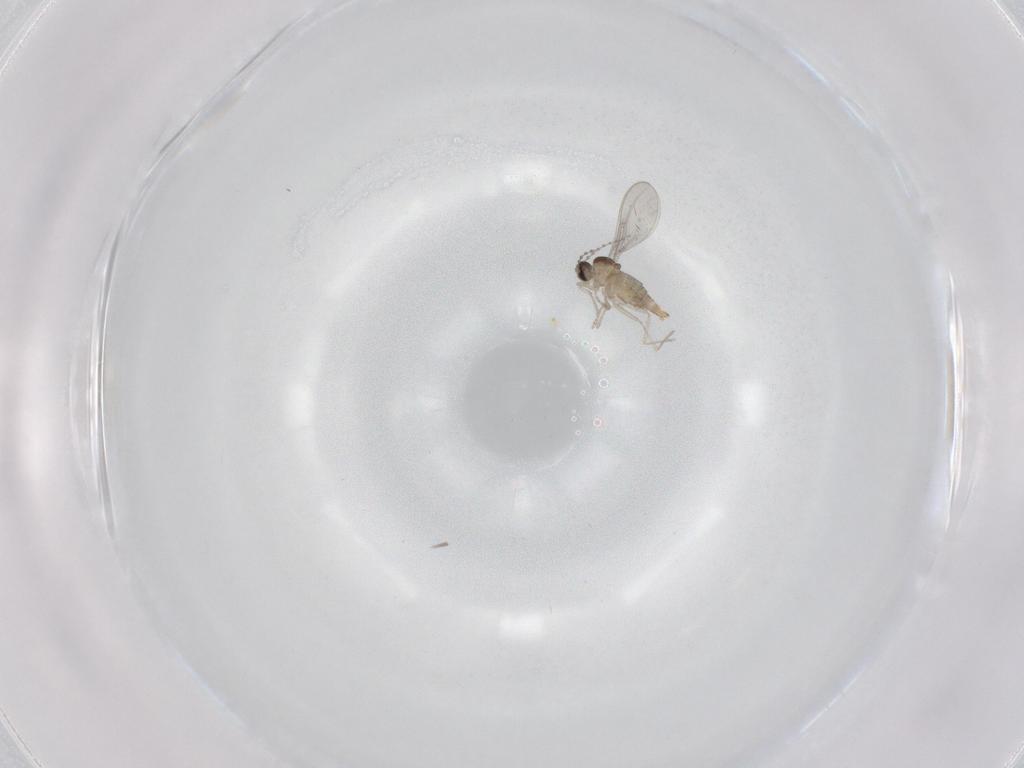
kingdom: Animalia
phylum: Arthropoda
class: Insecta
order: Diptera
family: Cecidomyiidae
